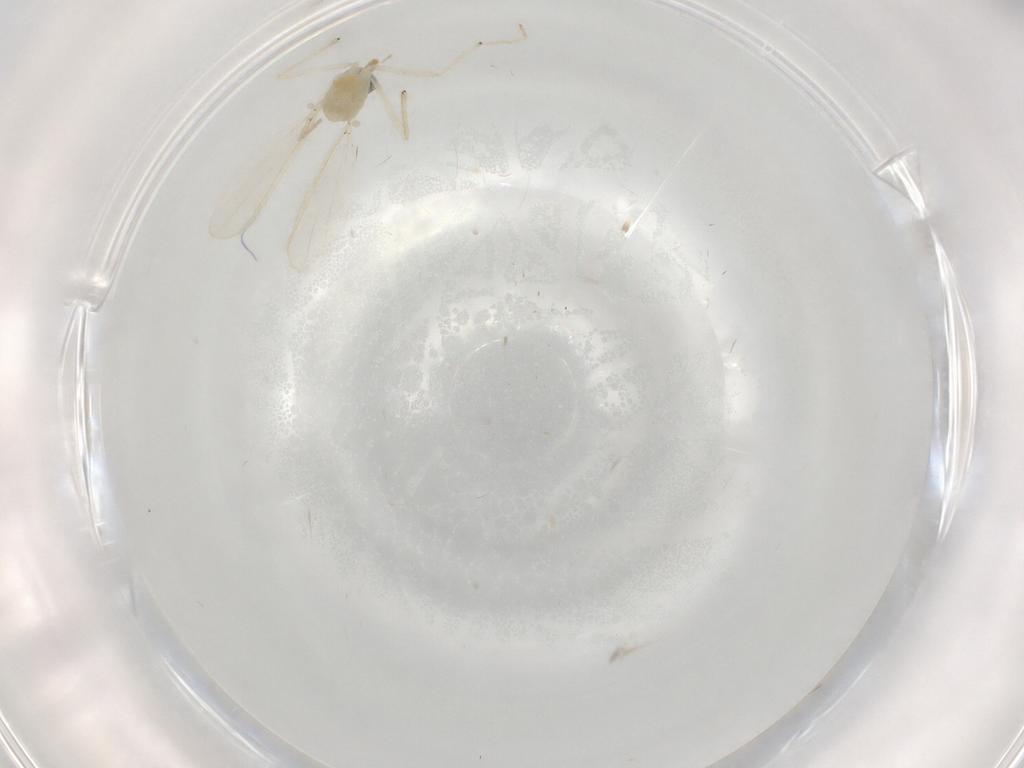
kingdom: Animalia
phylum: Arthropoda
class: Insecta
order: Diptera
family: Chironomidae
